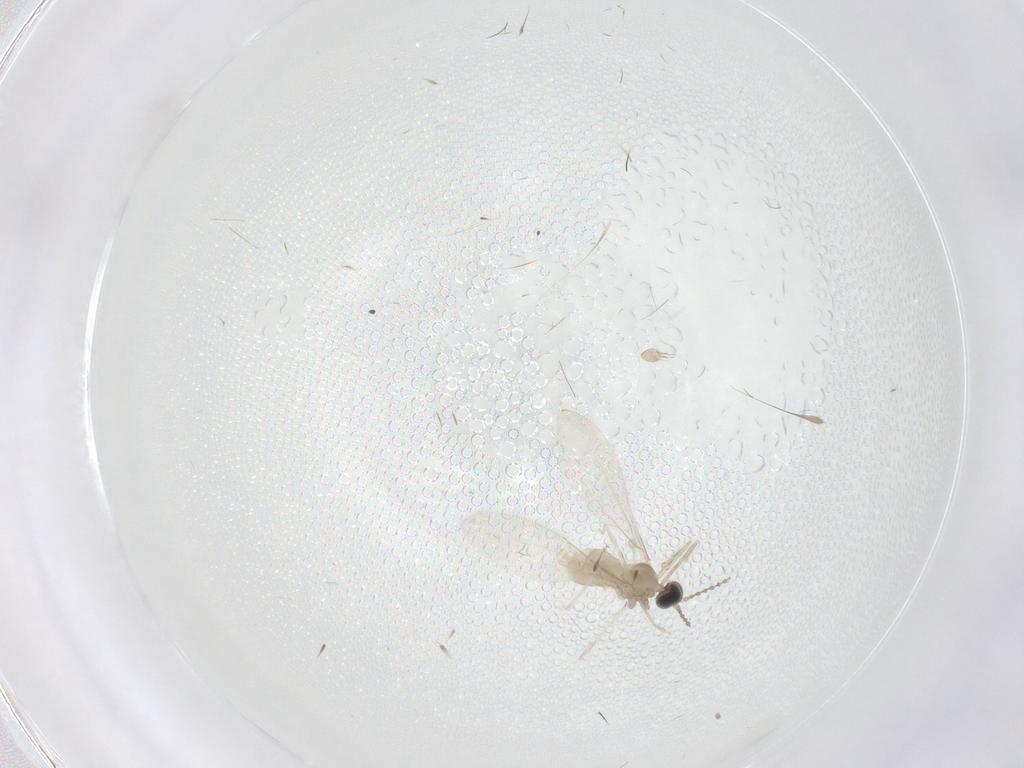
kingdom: Animalia
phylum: Arthropoda
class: Insecta
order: Diptera
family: Cecidomyiidae
